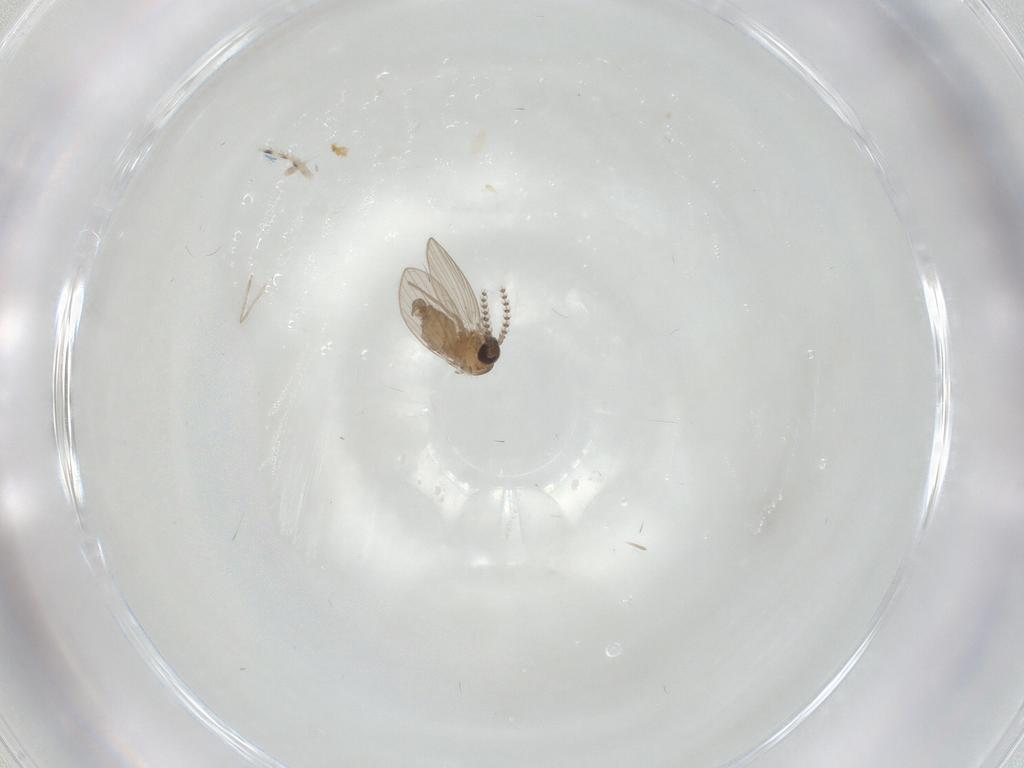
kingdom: Animalia
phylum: Arthropoda
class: Insecta
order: Diptera
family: Psychodidae
